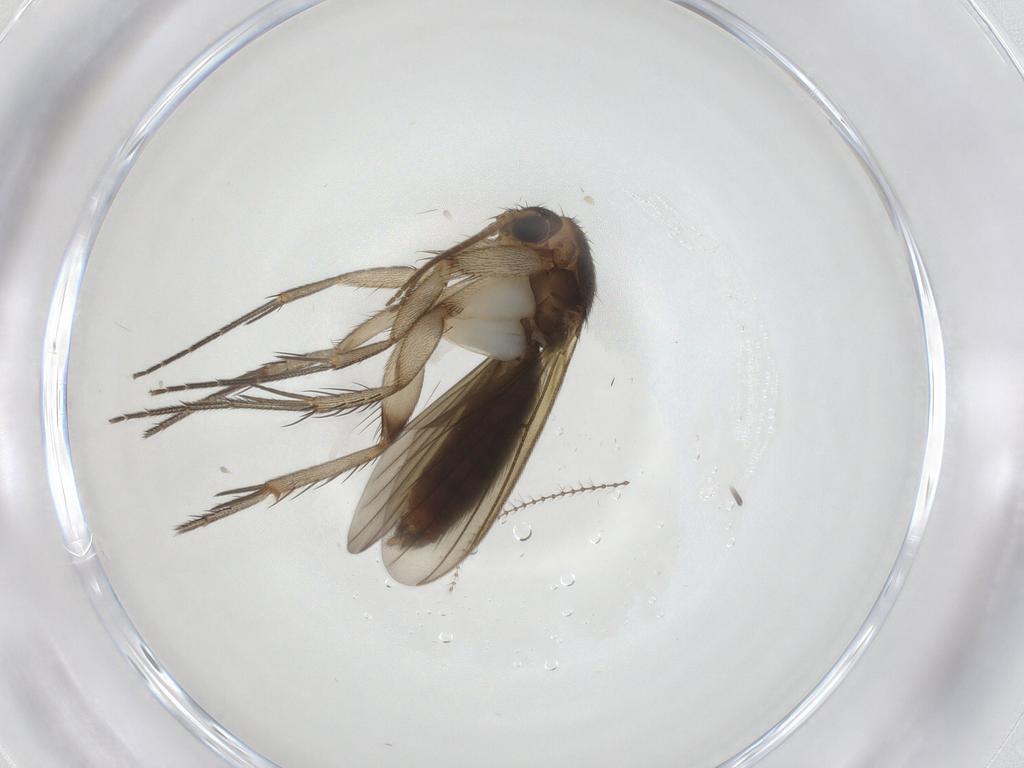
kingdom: Animalia
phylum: Arthropoda
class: Insecta
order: Diptera
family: Mycetophilidae
